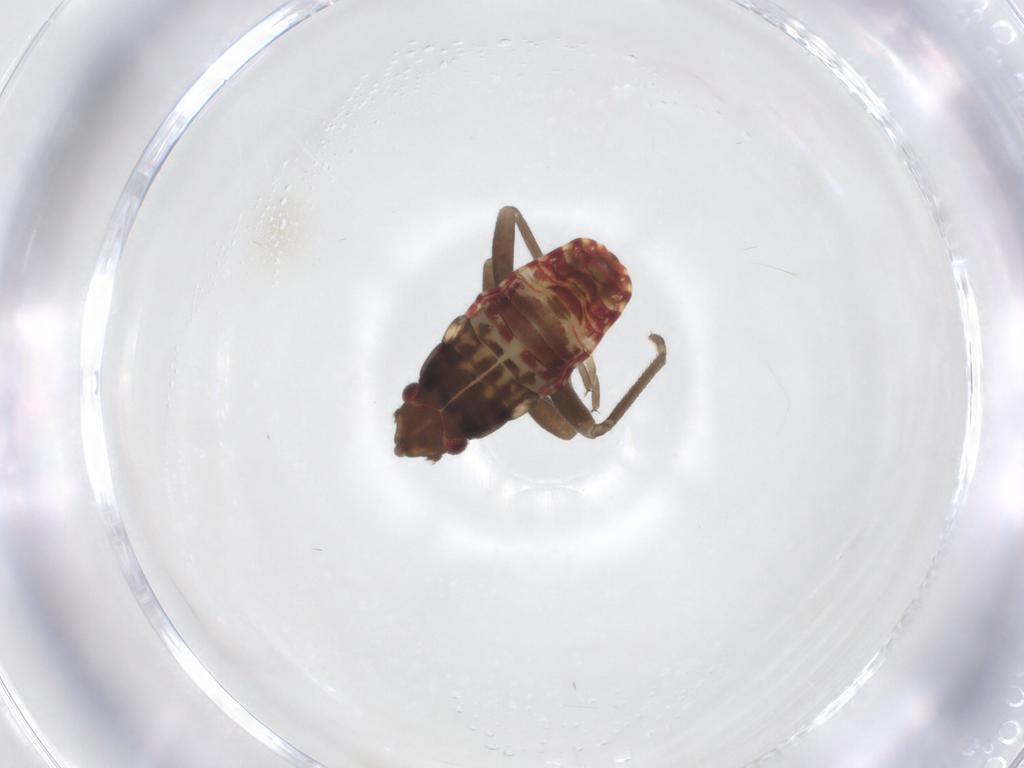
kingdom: Animalia
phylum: Arthropoda
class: Insecta
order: Hemiptera
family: Rhyparochromidae
